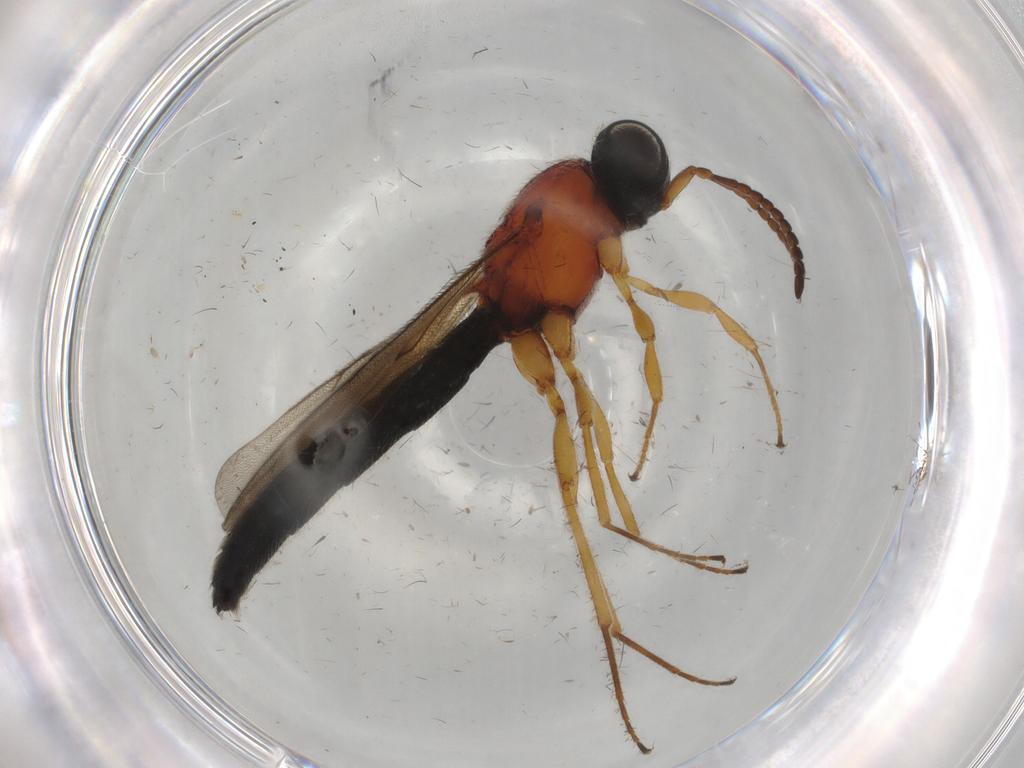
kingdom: Animalia
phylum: Arthropoda
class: Insecta
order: Hymenoptera
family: Scelionidae
